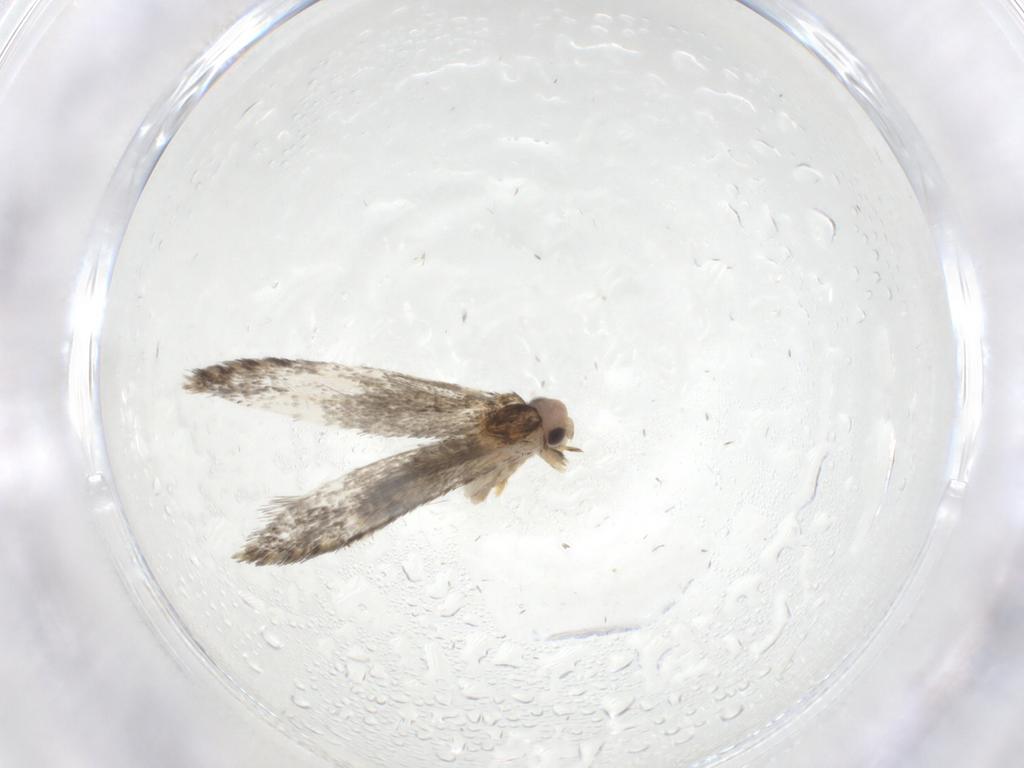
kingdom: Animalia
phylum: Arthropoda
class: Insecta
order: Lepidoptera
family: Tineidae
